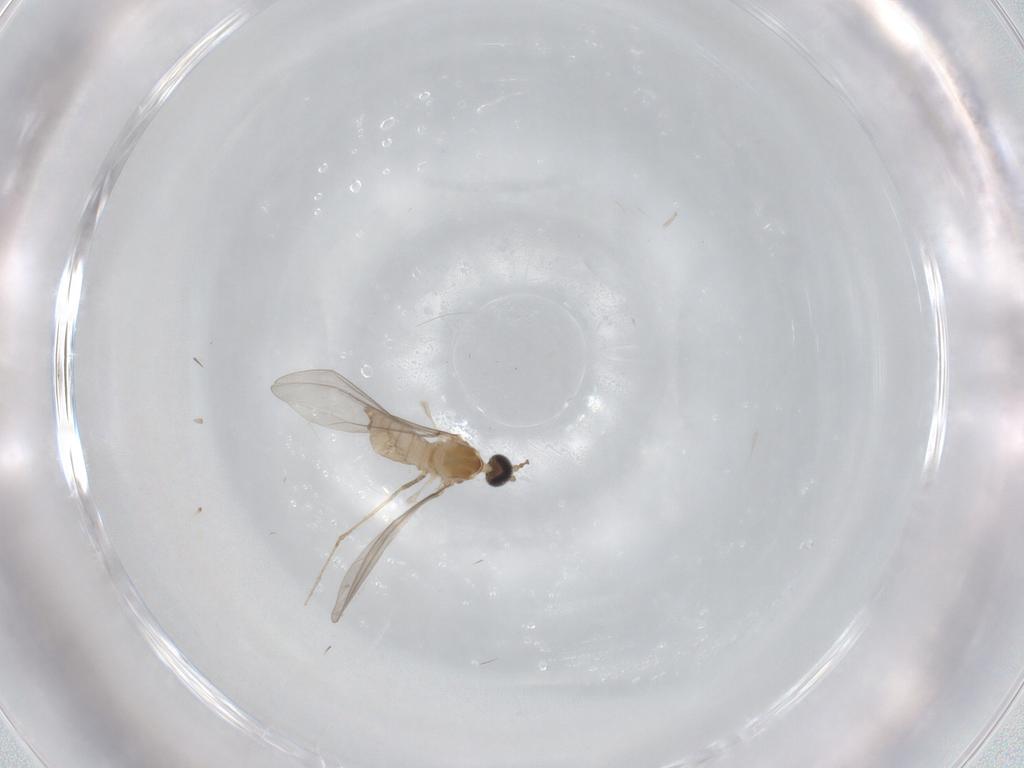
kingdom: Animalia
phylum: Arthropoda
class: Insecta
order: Diptera
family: Cecidomyiidae
